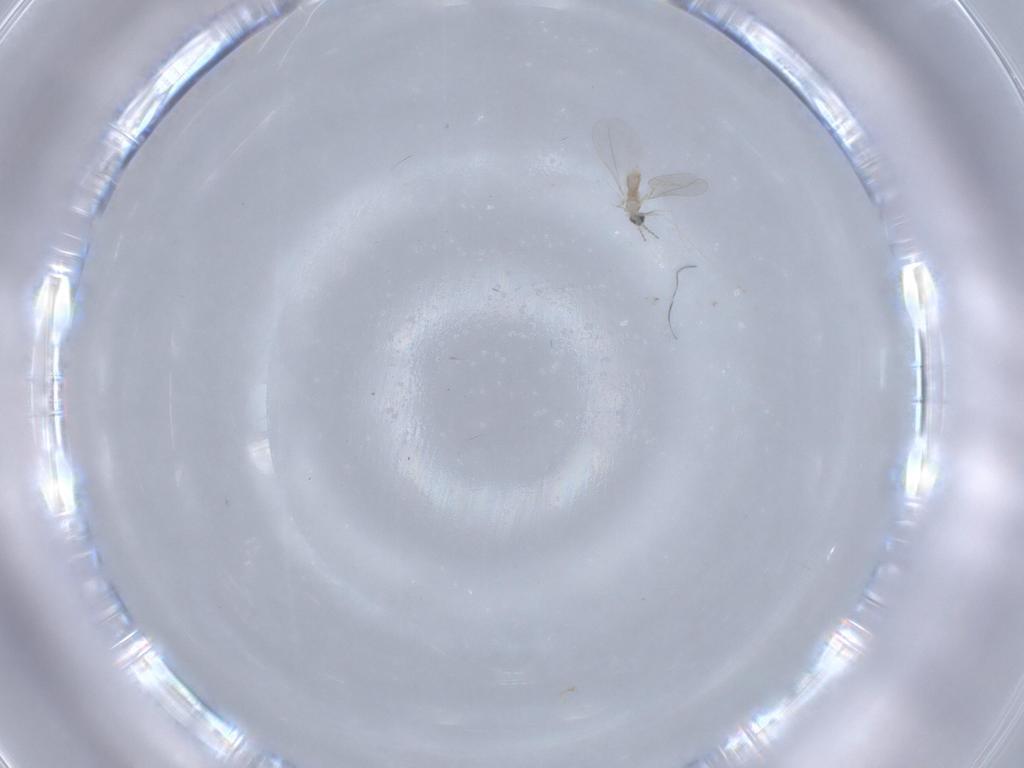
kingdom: Animalia
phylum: Arthropoda
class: Insecta
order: Diptera
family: Cecidomyiidae
